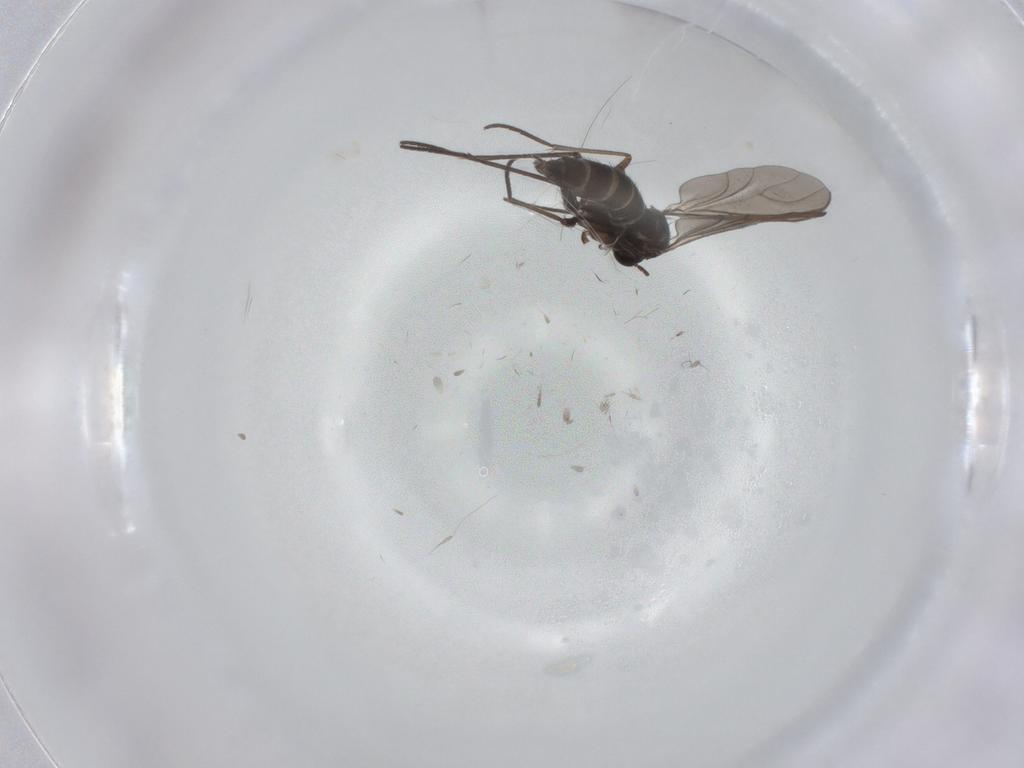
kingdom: Animalia
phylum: Arthropoda
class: Insecta
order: Diptera
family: Sciaridae
